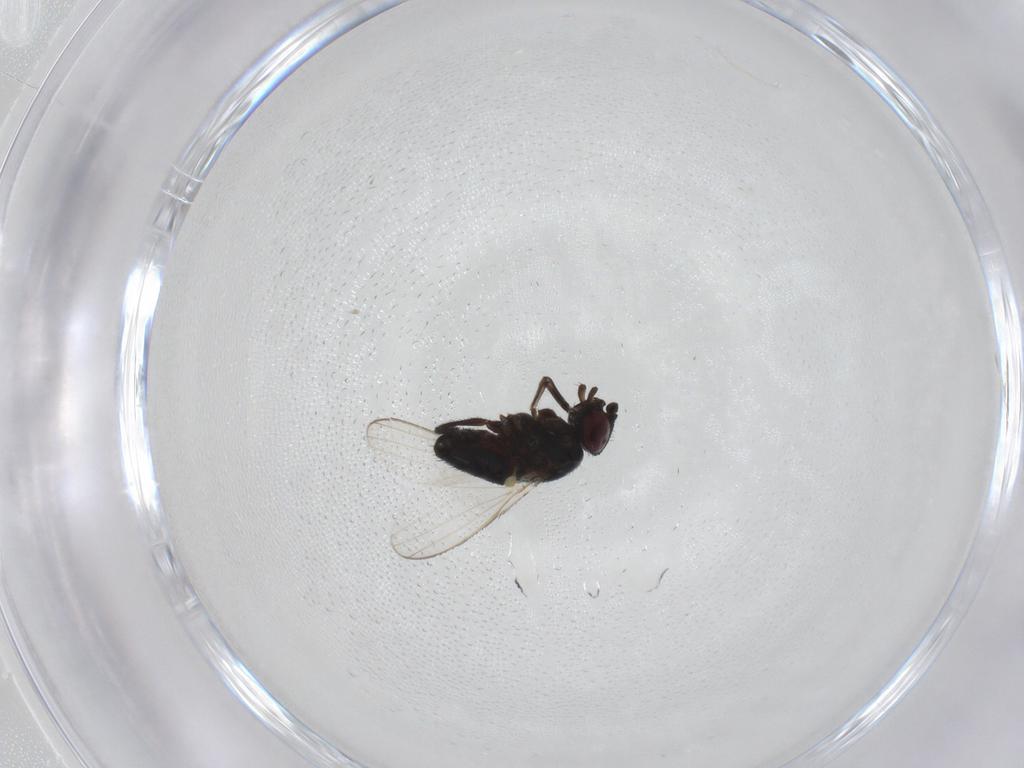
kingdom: Animalia
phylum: Arthropoda
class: Insecta
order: Diptera
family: Milichiidae
